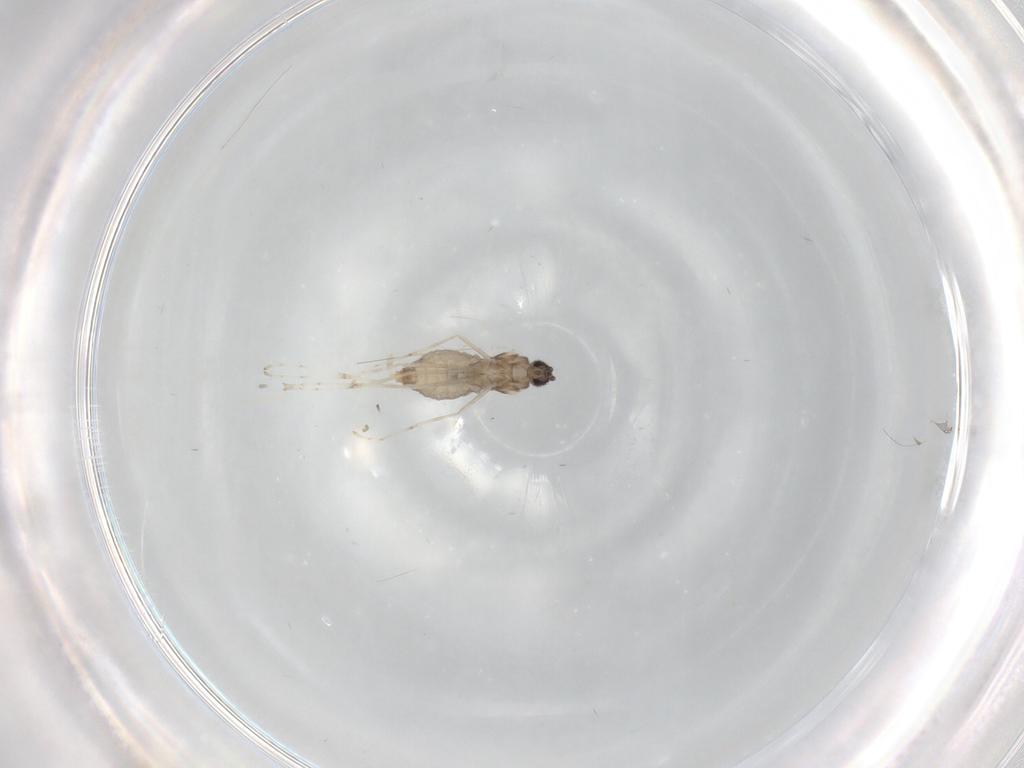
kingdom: Animalia
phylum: Arthropoda
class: Insecta
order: Diptera
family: Cecidomyiidae
